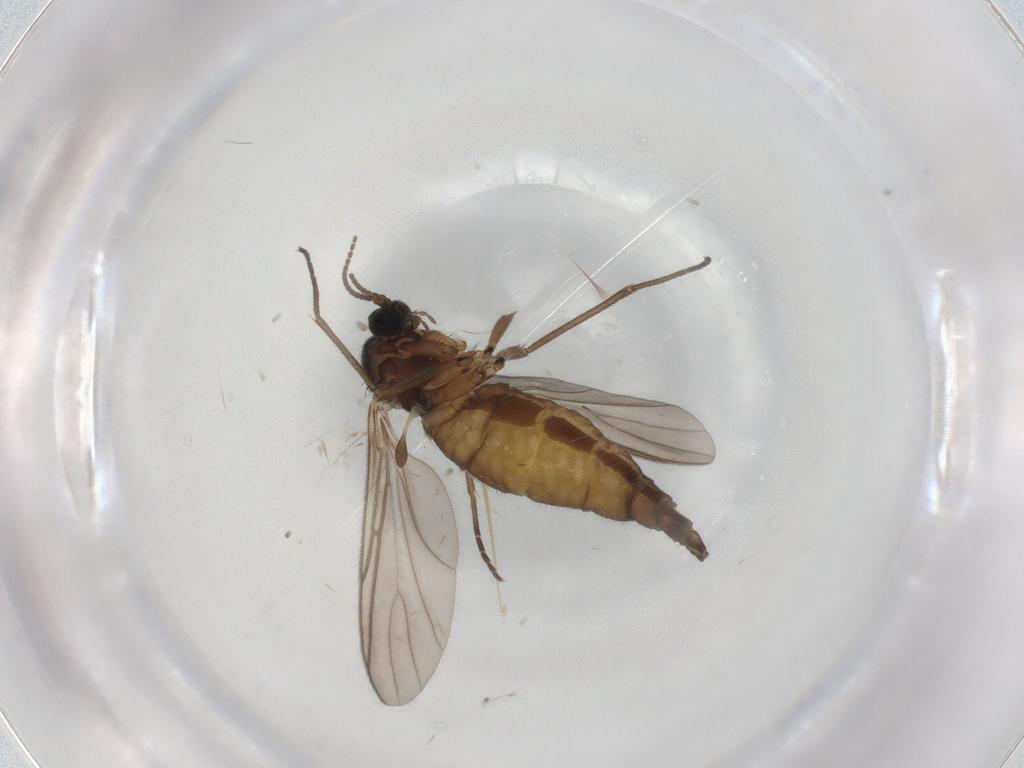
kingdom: Animalia
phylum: Arthropoda
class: Insecta
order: Diptera
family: Sciaridae
